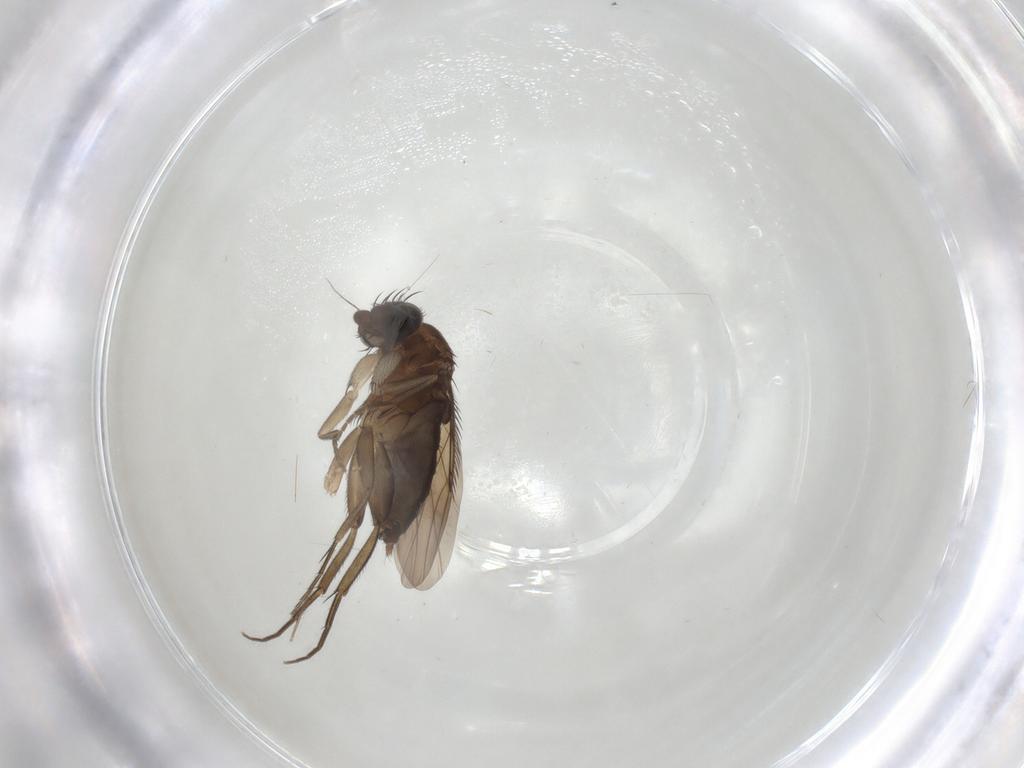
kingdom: Animalia
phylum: Arthropoda
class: Insecta
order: Diptera
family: Phoridae
